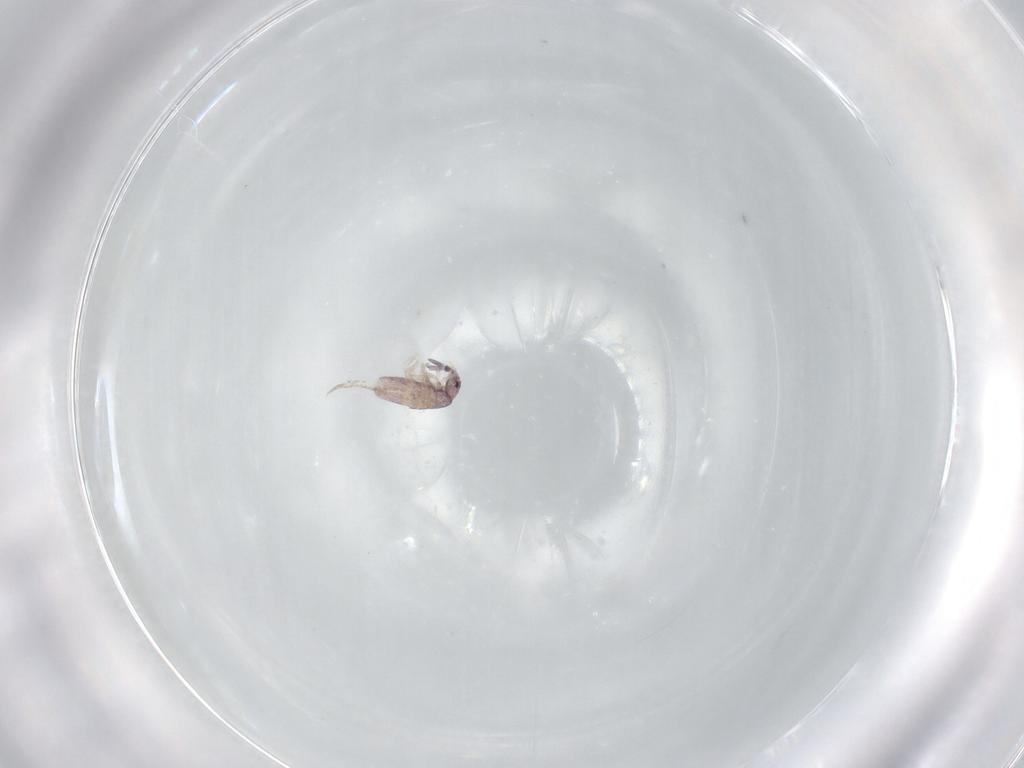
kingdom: Animalia
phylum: Arthropoda
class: Collembola
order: Entomobryomorpha
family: Entomobryidae
